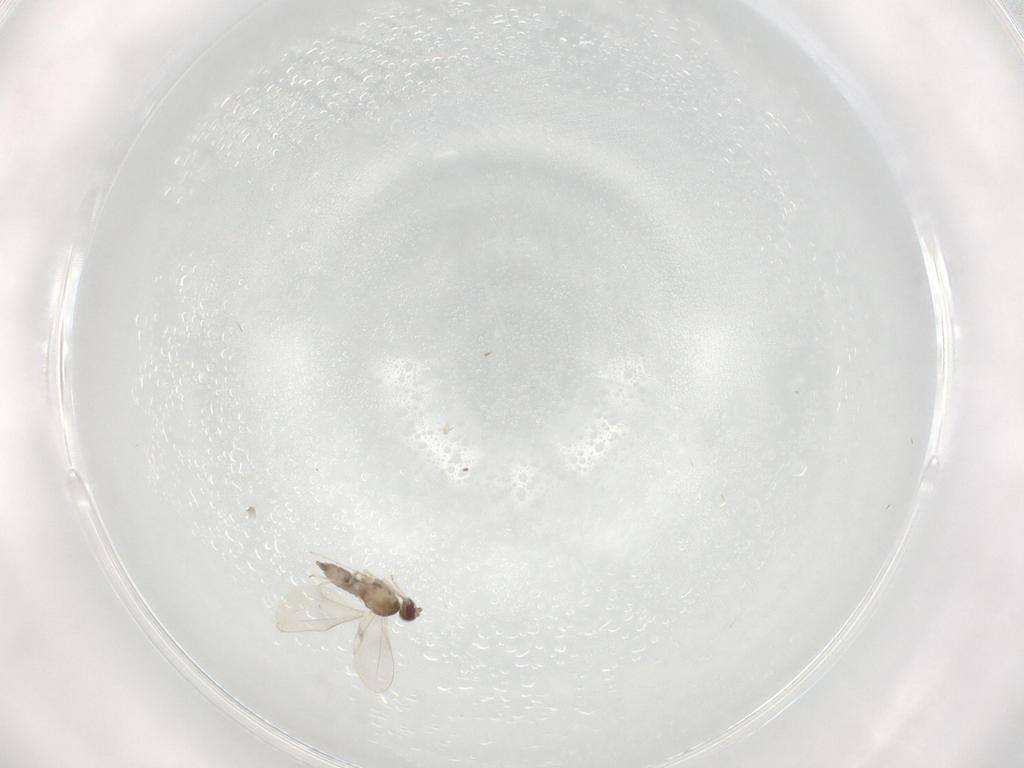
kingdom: Animalia
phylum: Arthropoda
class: Insecta
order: Diptera
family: Cecidomyiidae
